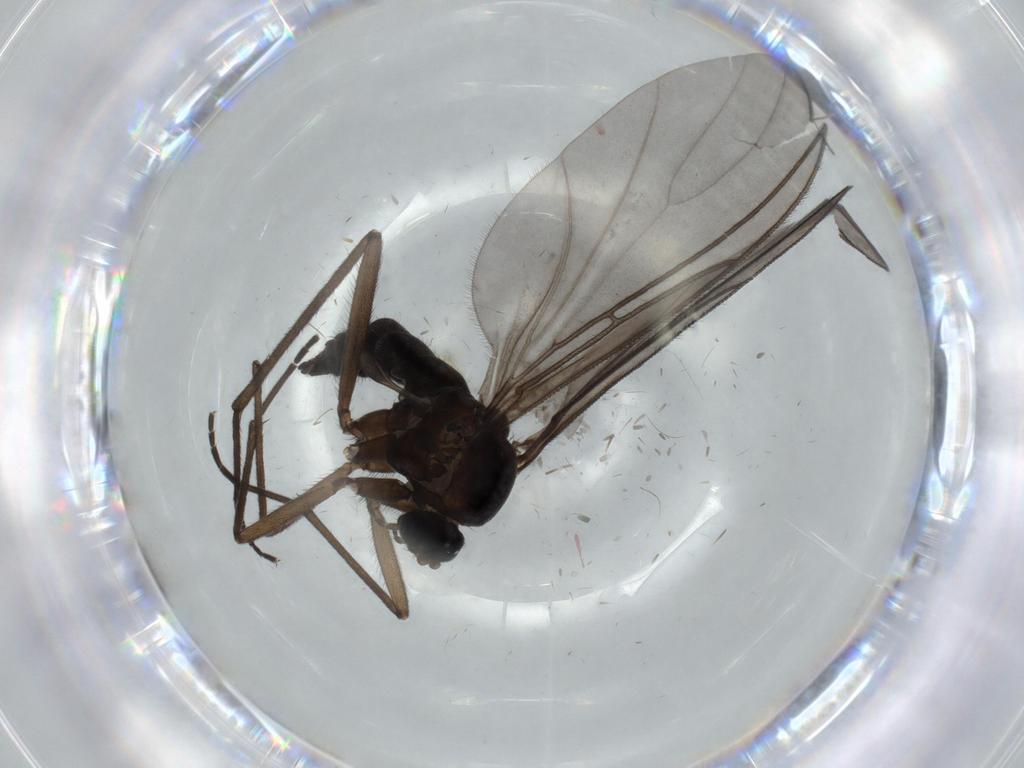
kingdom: Animalia
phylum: Arthropoda
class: Insecta
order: Diptera
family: Sciaridae
